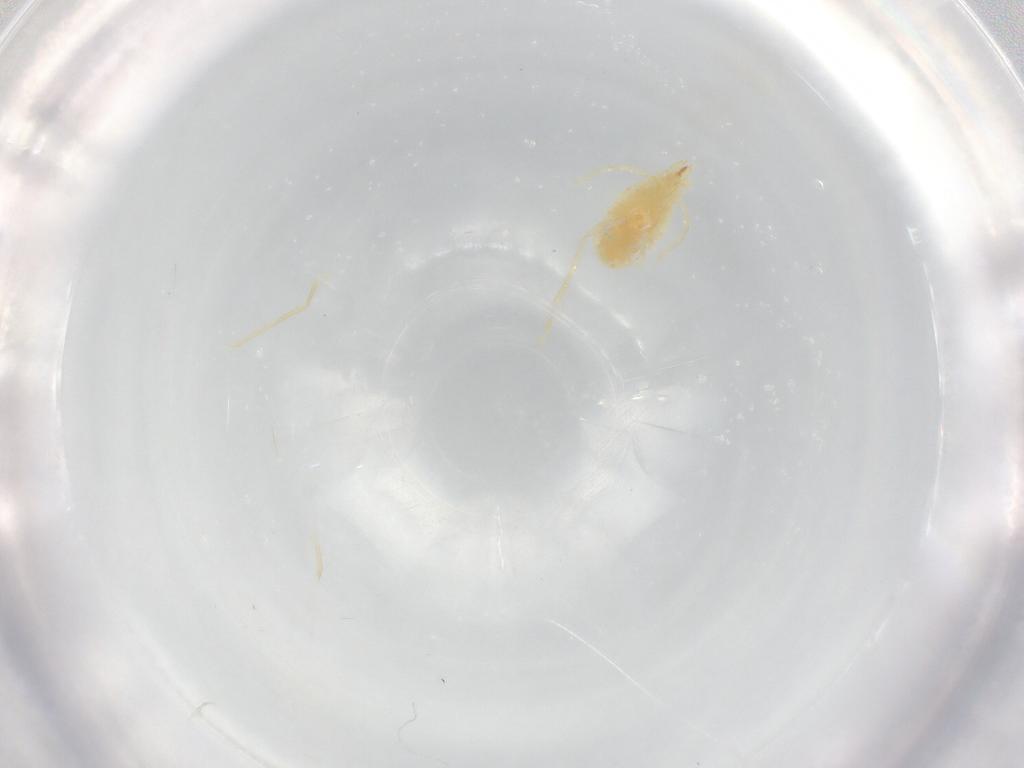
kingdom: Animalia
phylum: Arthropoda
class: Arachnida
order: Trombidiformes
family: Erythraeidae
